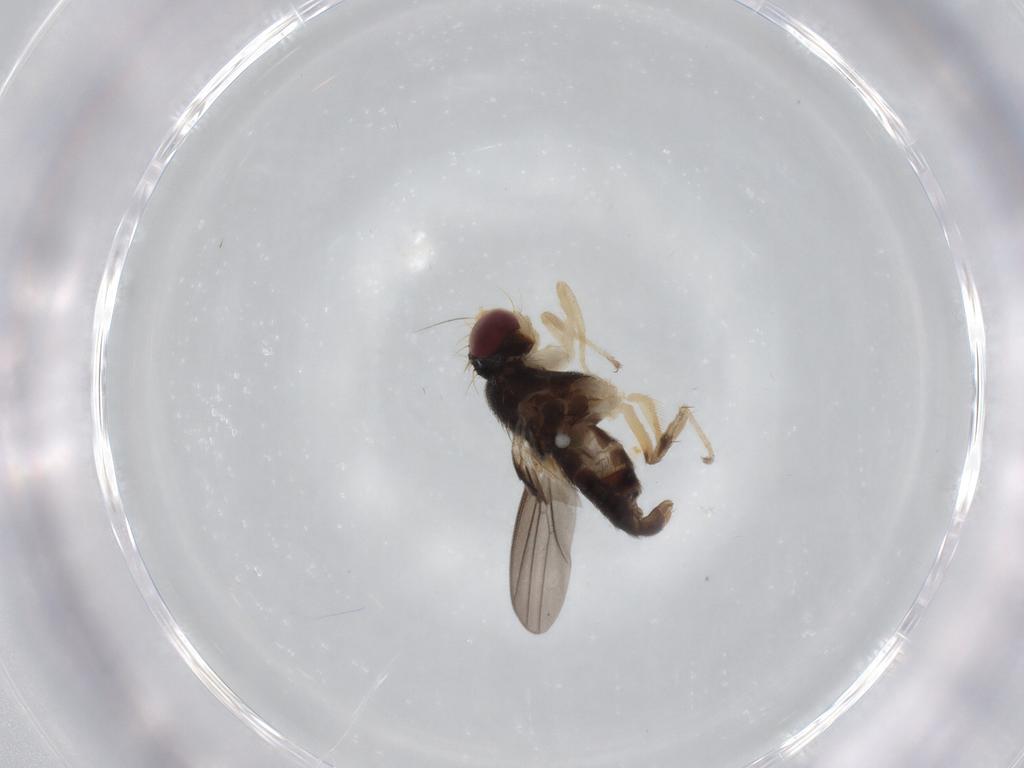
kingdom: Animalia
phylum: Arthropoda
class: Insecta
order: Diptera
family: Clusiidae
